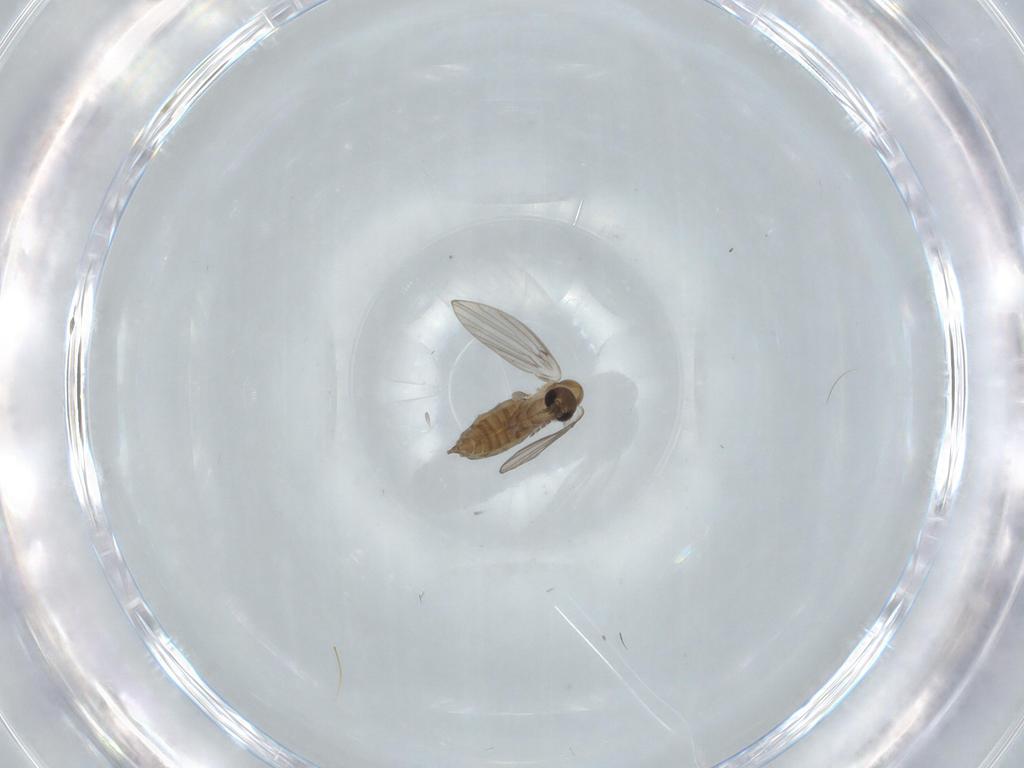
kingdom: Animalia
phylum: Arthropoda
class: Insecta
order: Diptera
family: Psychodidae
